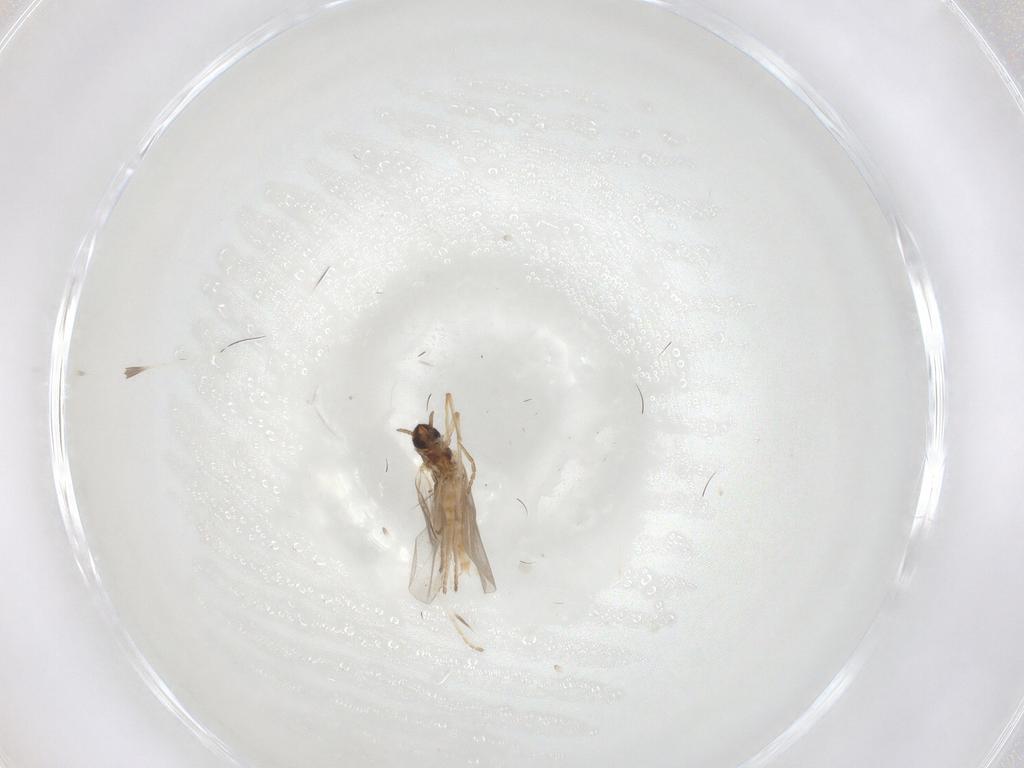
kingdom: Animalia
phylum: Arthropoda
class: Insecta
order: Diptera
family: Cecidomyiidae
